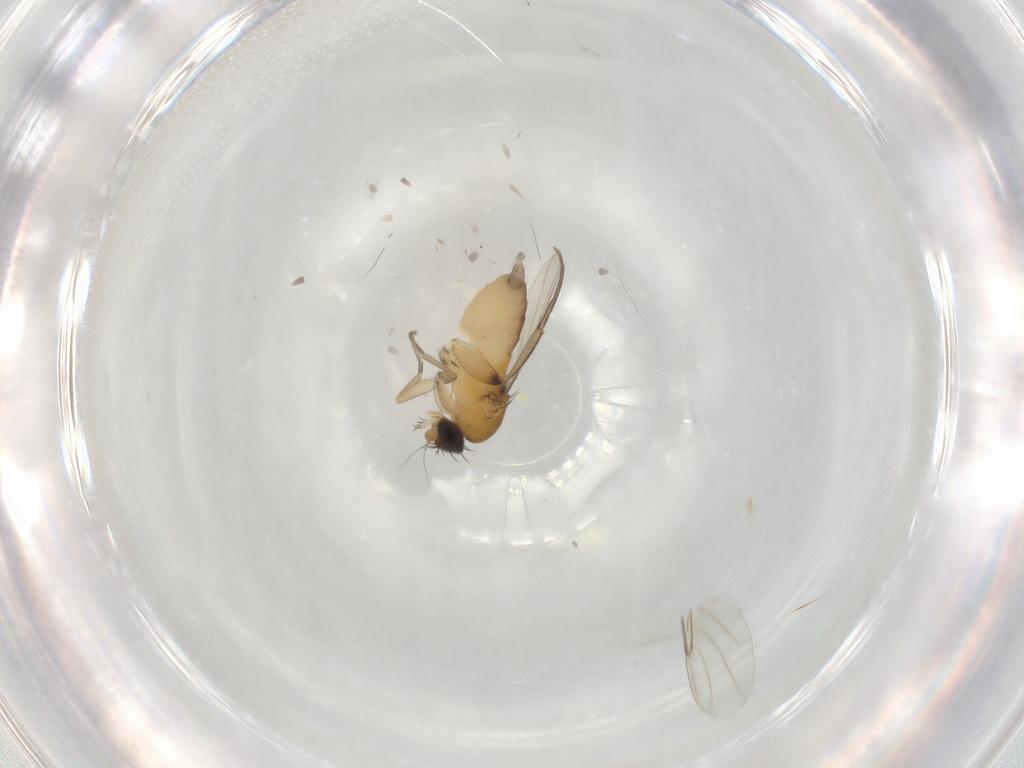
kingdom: Animalia
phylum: Arthropoda
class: Insecta
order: Diptera
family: Phoridae
